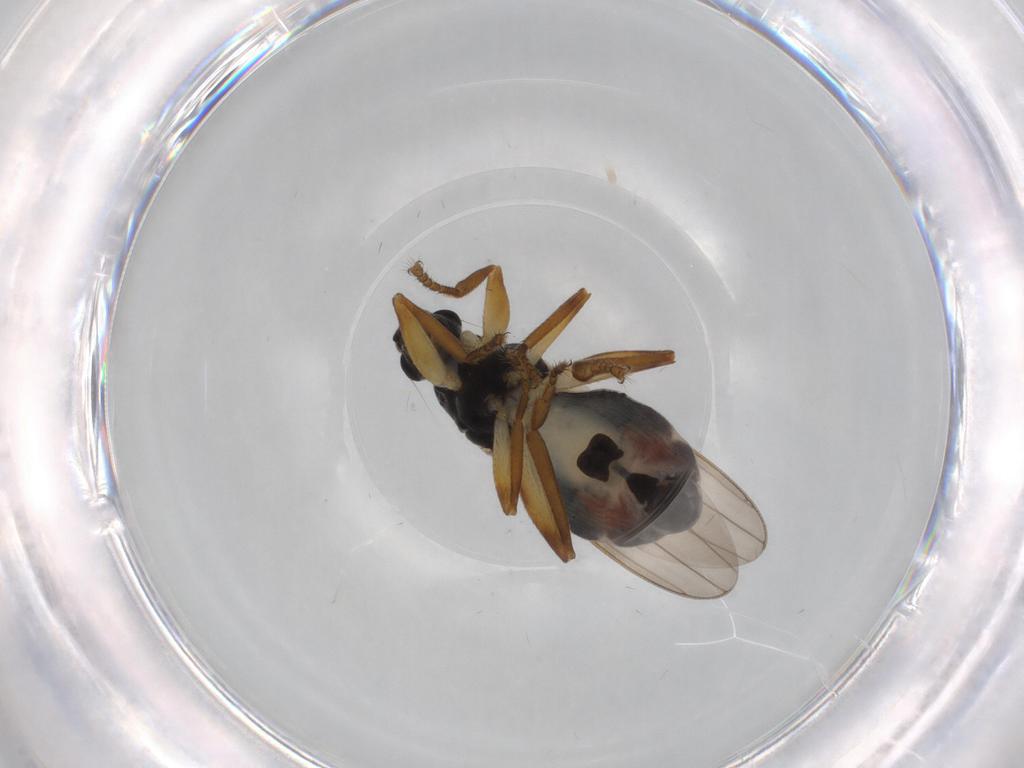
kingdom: Animalia
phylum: Arthropoda
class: Insecta
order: Diptera
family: Sphaeroceridae
